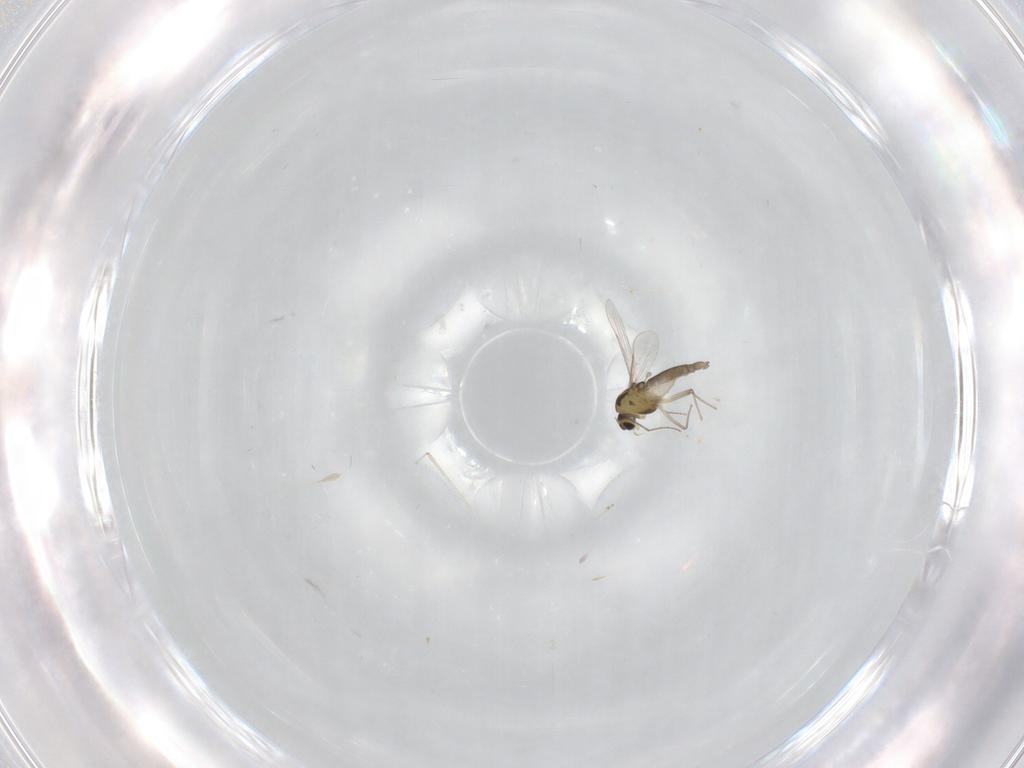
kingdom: Animalia
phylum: Arthropoda
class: Insecta
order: Diptera
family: Chironomidae
